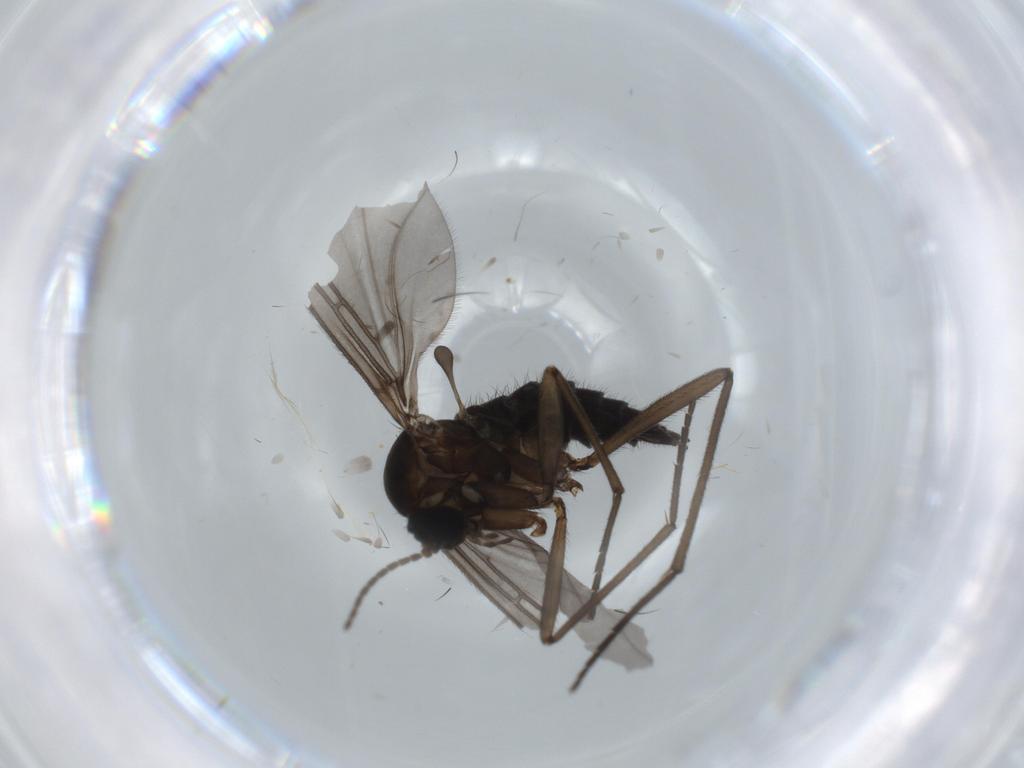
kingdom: Animalia
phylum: Arthropoda
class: Insecta
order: Diptera
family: Sciaridae
